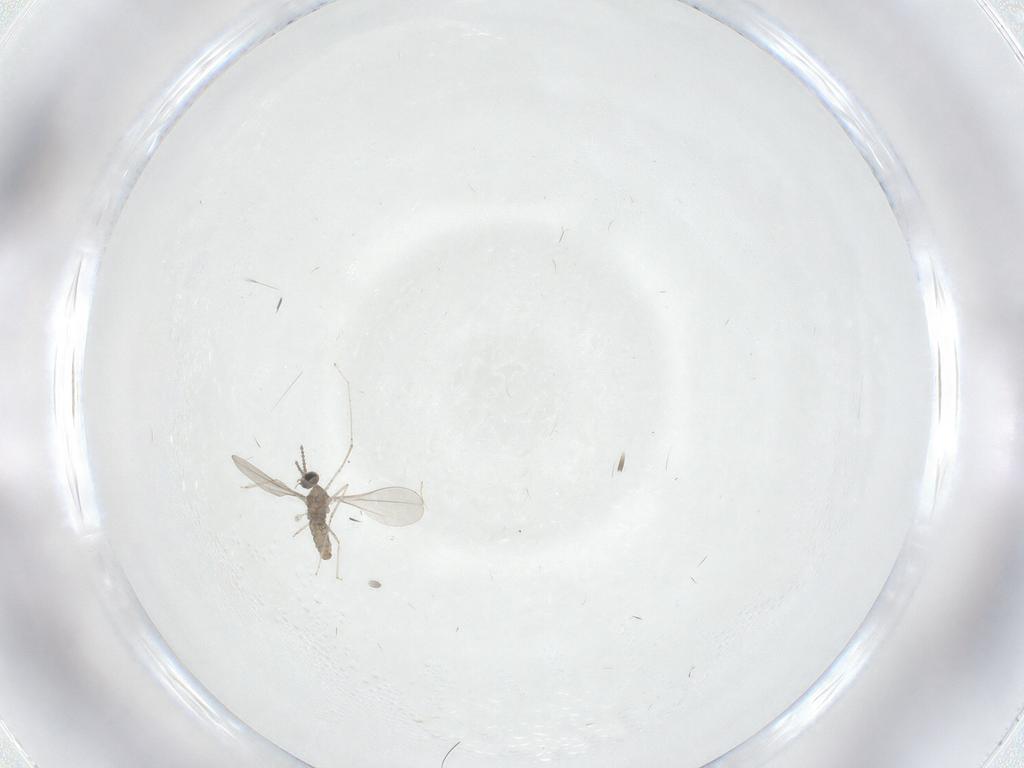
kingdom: Animalia
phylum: Arthropoda
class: Insecta
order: Diptera
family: Cecidomyiidae
